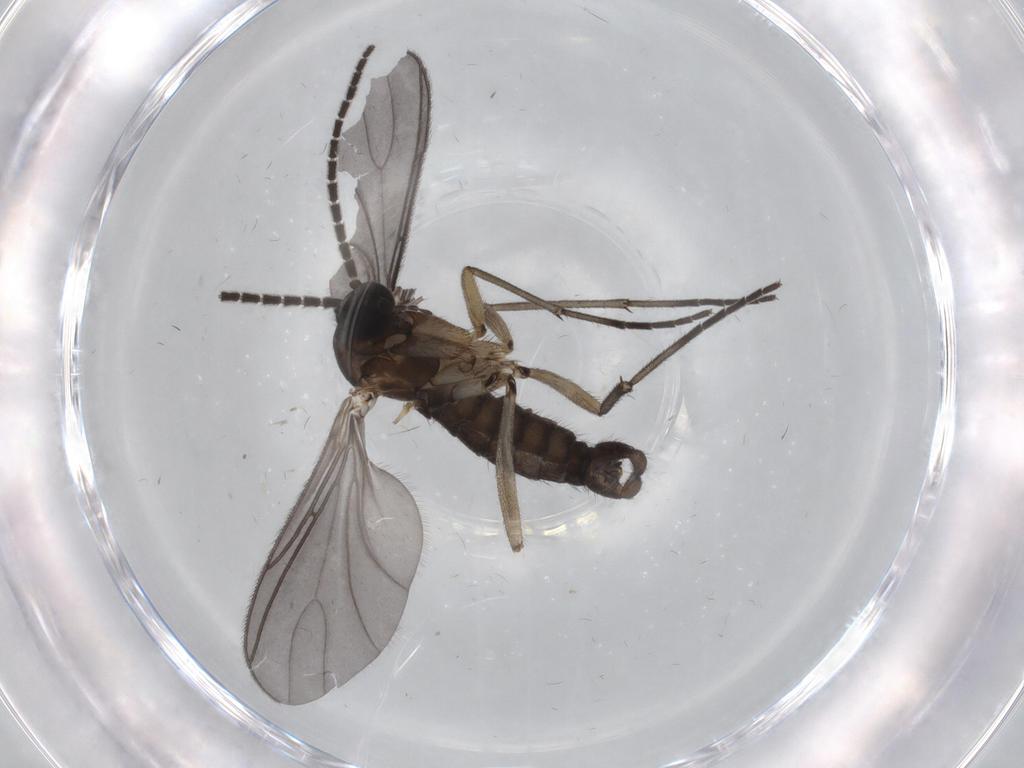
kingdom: Animalia
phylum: Arthropoda
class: Insecta
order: Diptera
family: Sciaridae
